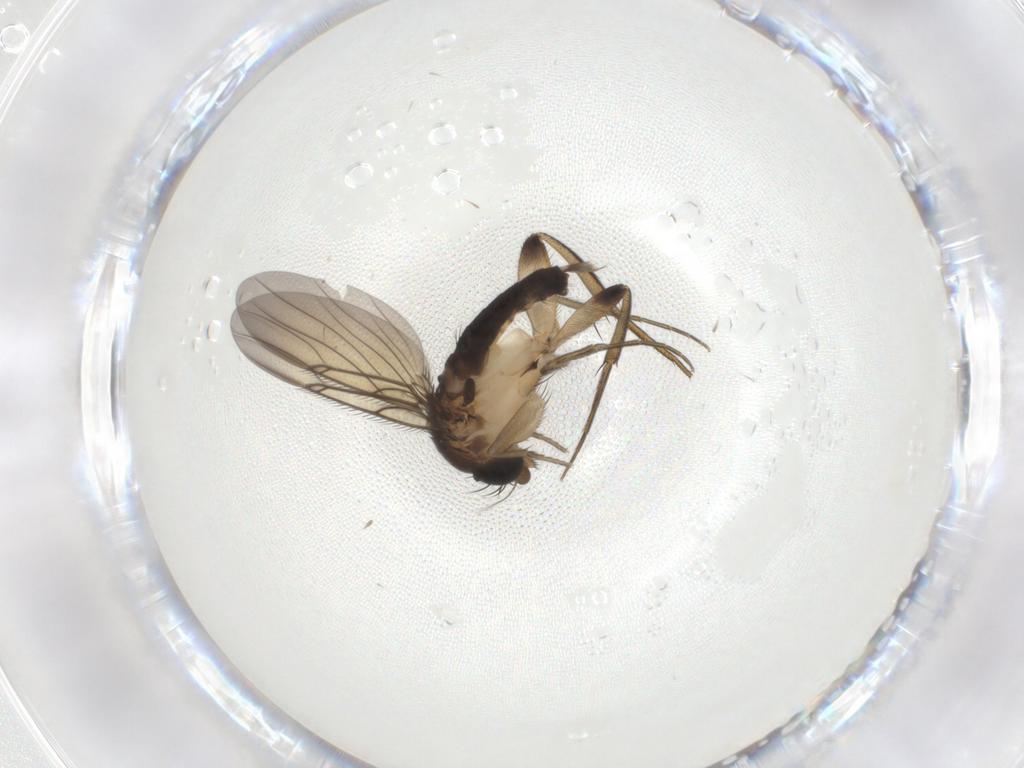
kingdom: Animalia
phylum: Arthropoda
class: Insecta
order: Diptera
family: Phoridae
